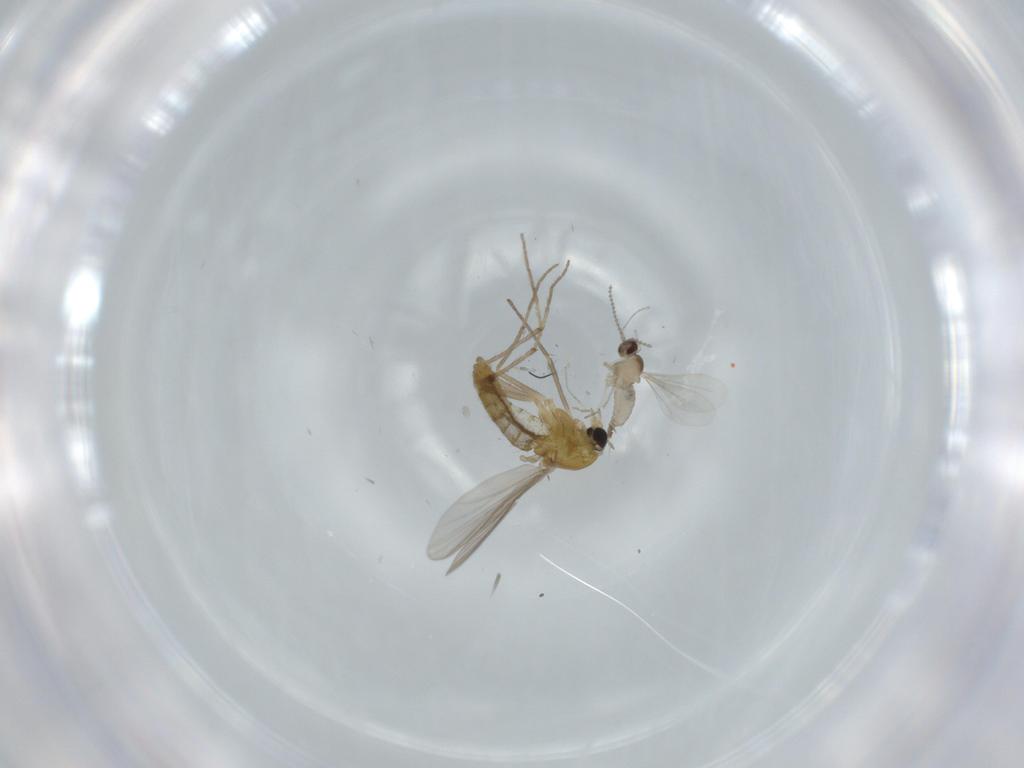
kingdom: Animalia
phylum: Arthropoda
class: Insecta
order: Diptera
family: Chironomidae
